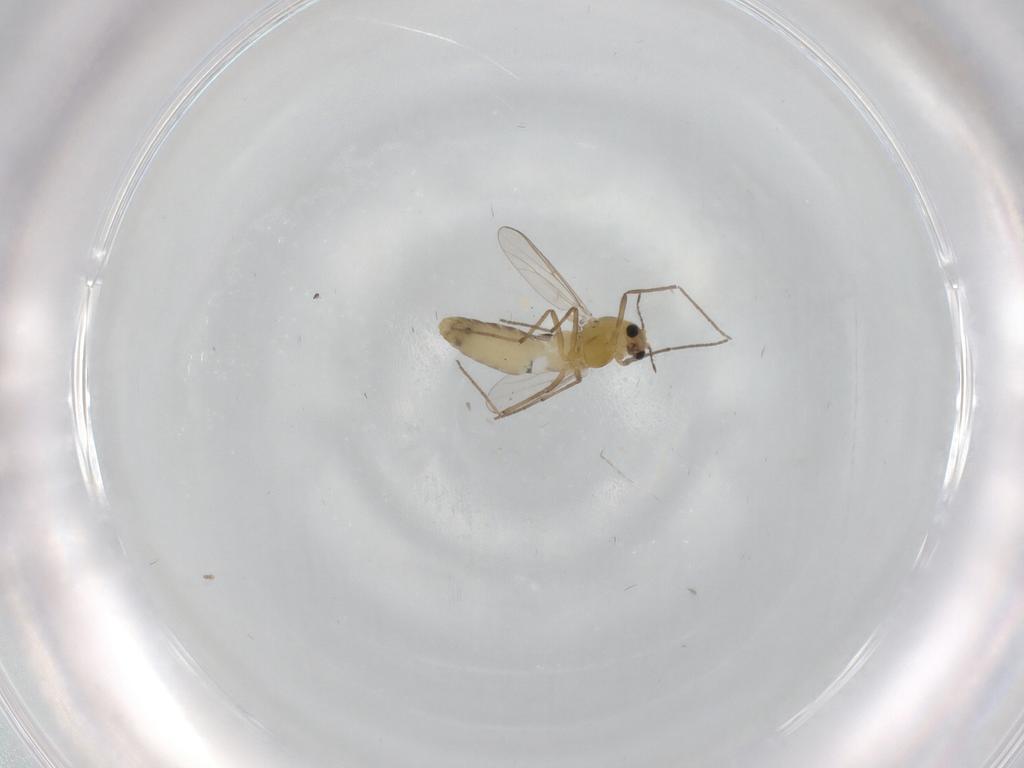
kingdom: Animalia
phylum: Arthropoda
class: Insecta
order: Diptera
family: Chironomidae
